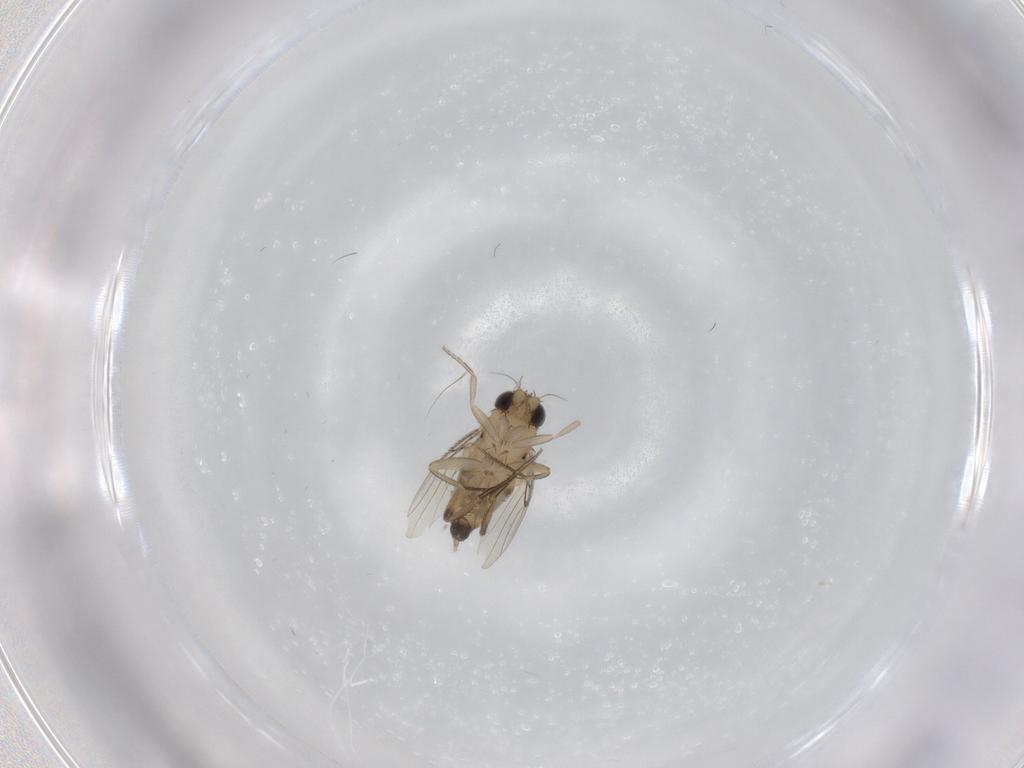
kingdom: Animalia
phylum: Arthropoda
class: Insecta
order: Diptera
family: Phoridae
